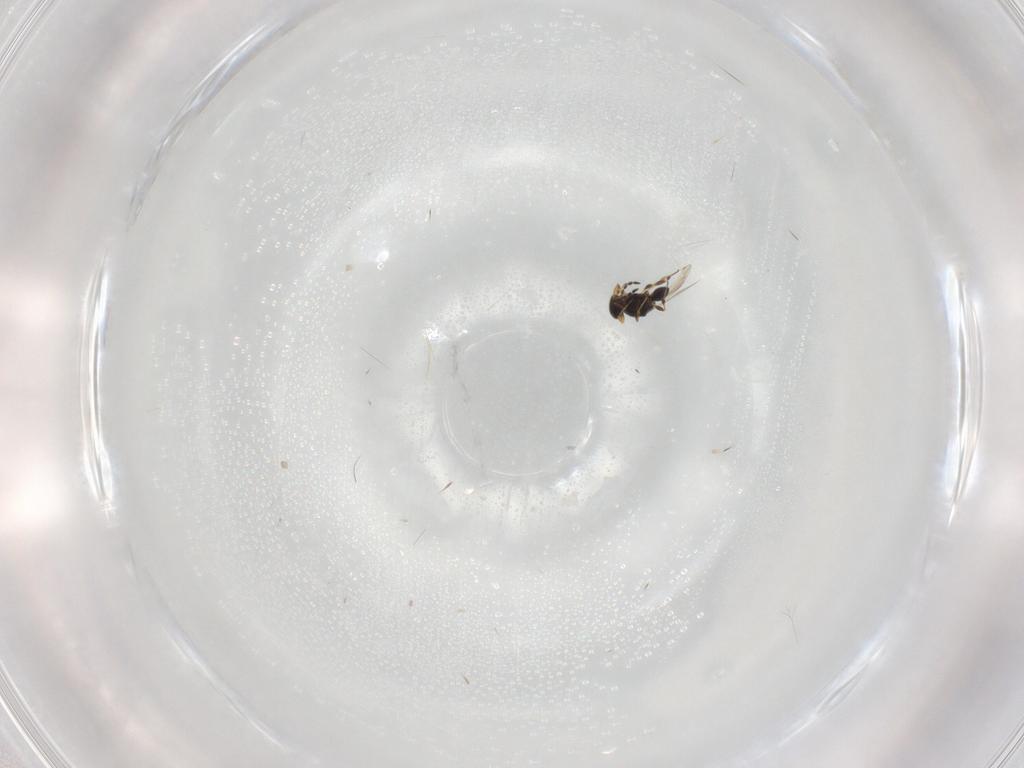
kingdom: Animalia
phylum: Arthropoda
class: Insecta
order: Hymenoptera
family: Platygastridae
